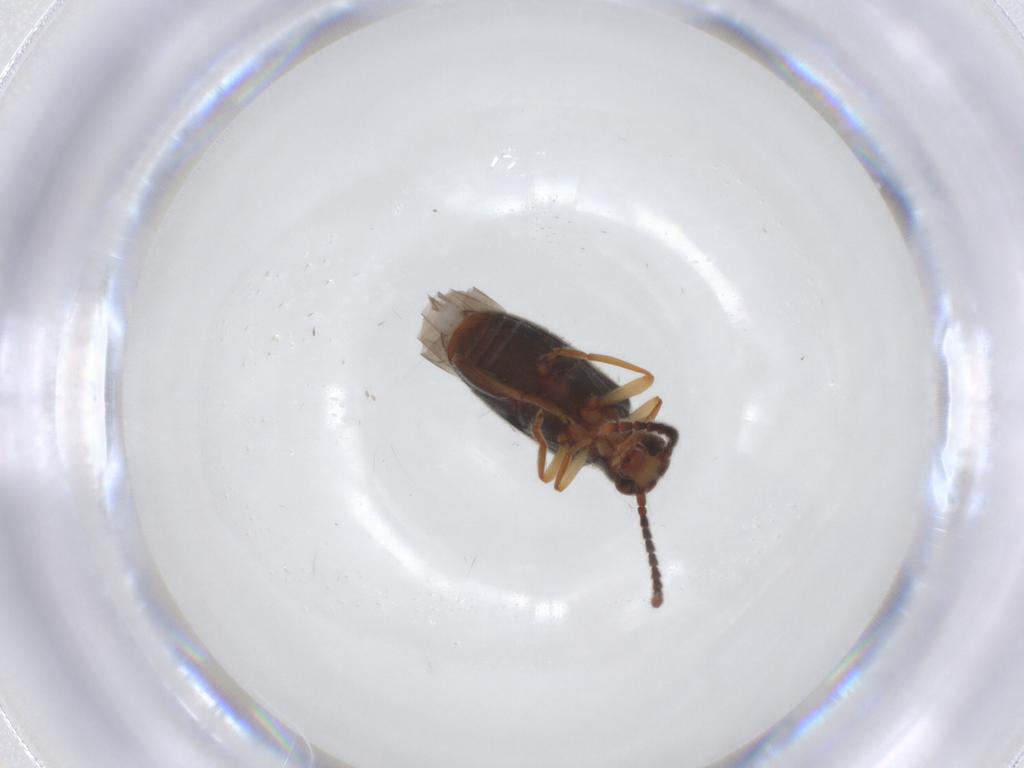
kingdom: Animalia
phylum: Arthropoda
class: Insecta
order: Coleoptera
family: Aderidae
